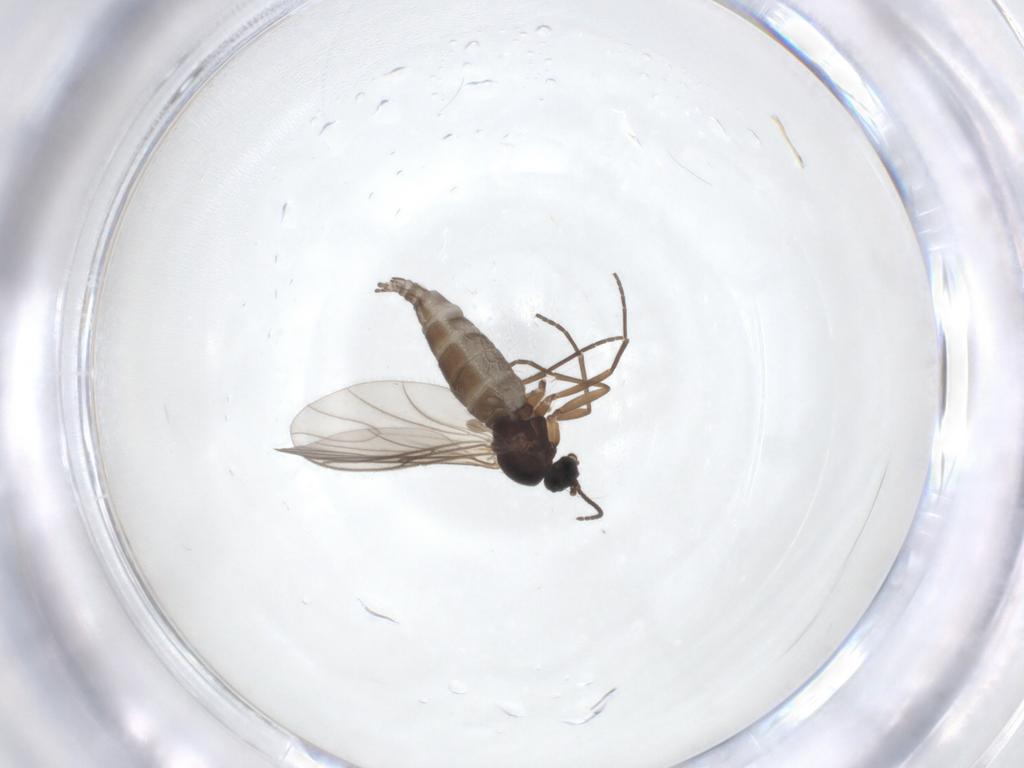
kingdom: Animalia
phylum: Arthropoda
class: Insecta
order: Diptera
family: Sciaridae
